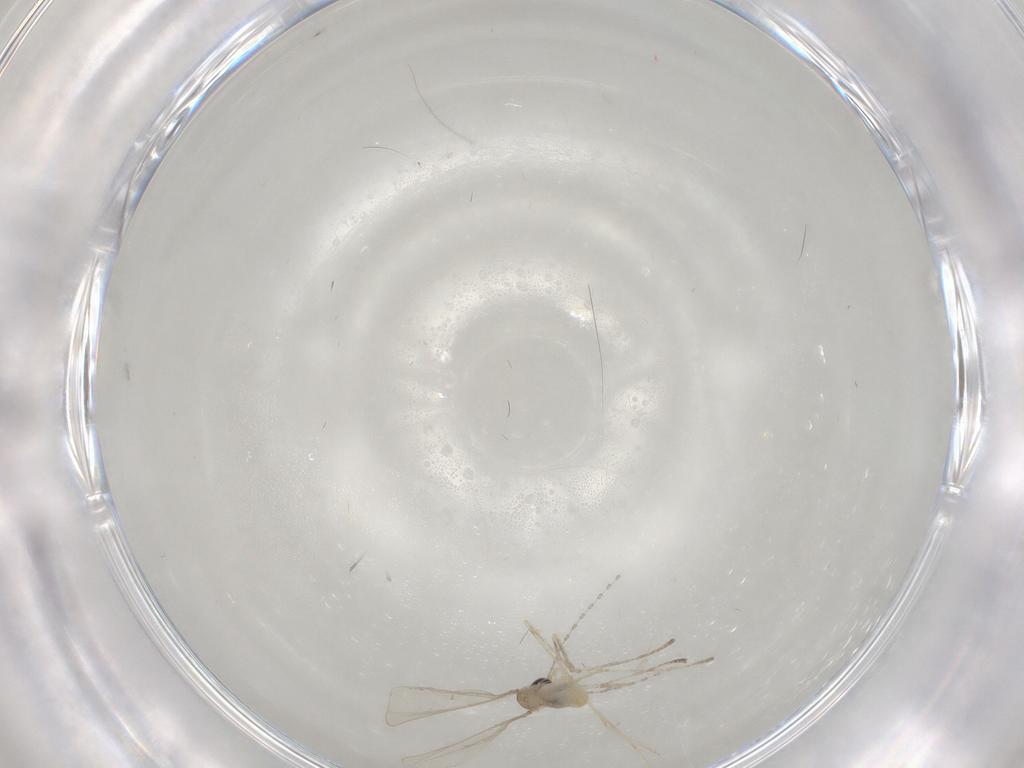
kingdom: Animalia
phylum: Arthropoda
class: Insecta
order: Diptera
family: Cecidomyiidae
